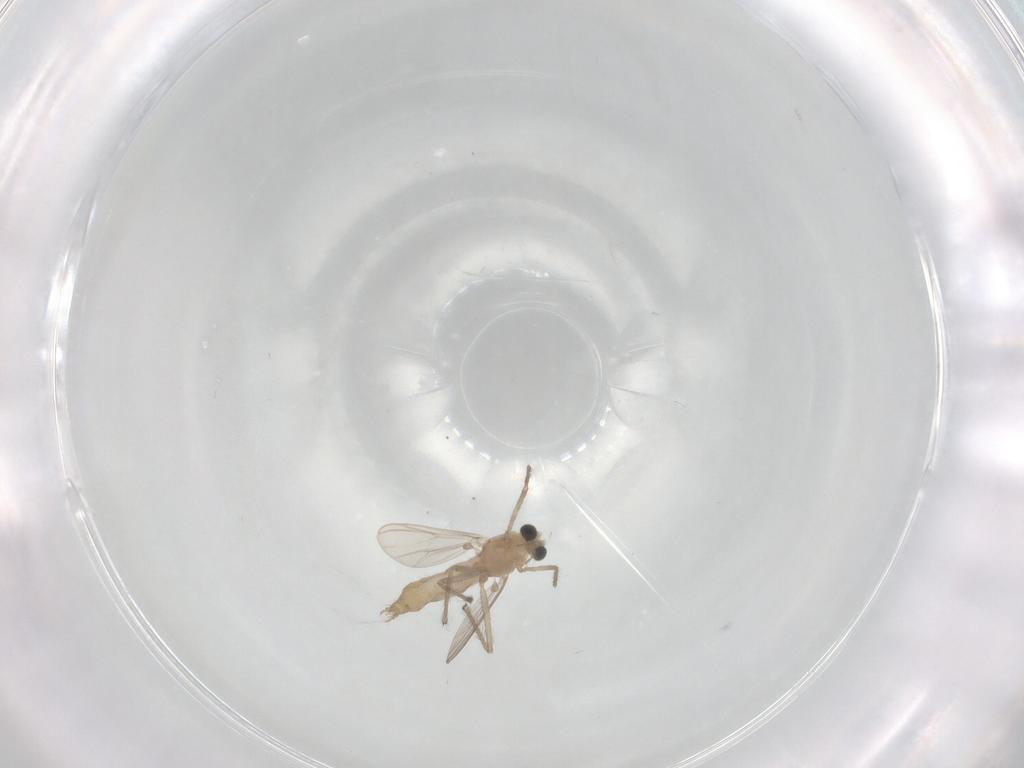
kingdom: Animalia
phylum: Arthropoda
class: Insecta
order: Diptera
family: Chironomidae
